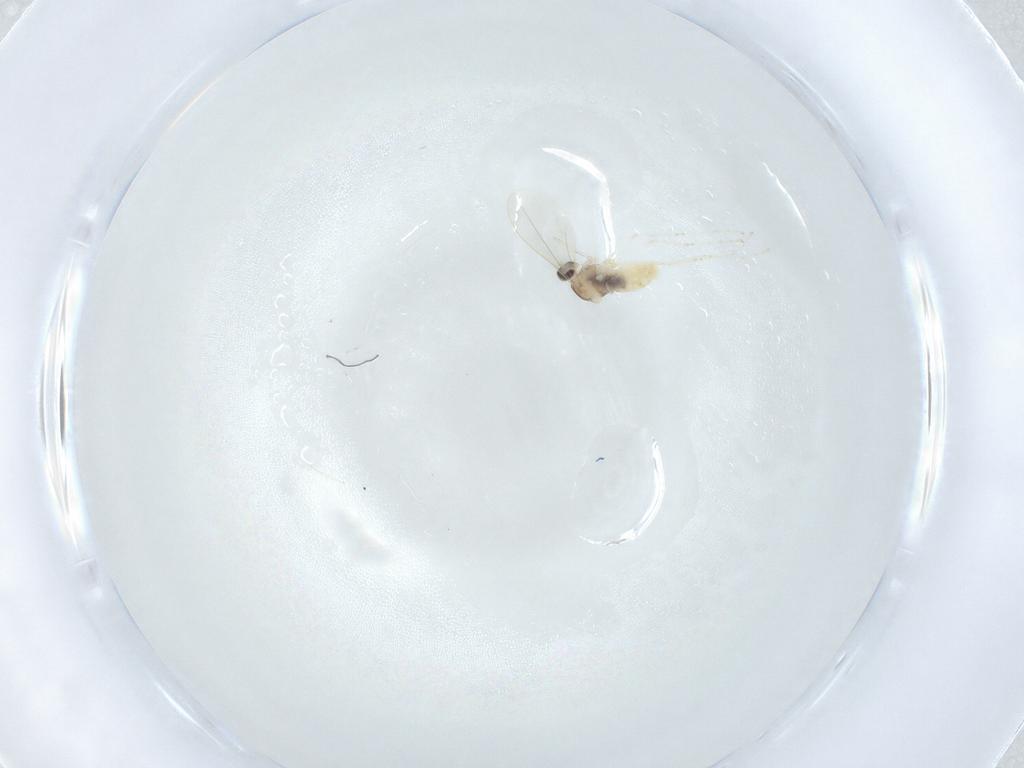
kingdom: Animalia
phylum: Arthropoda
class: Insecta
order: Diptera
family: Cecidomyiidae
